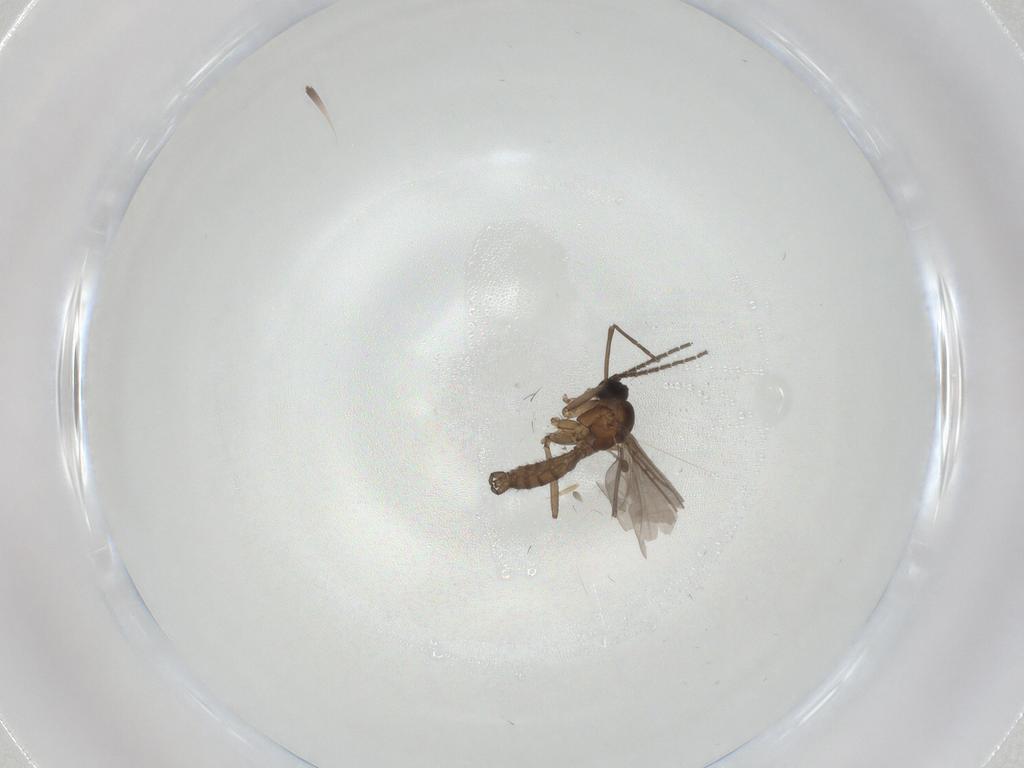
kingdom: Animalia
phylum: Arthropoda
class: Insecta
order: Diptera
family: Sciaridae
